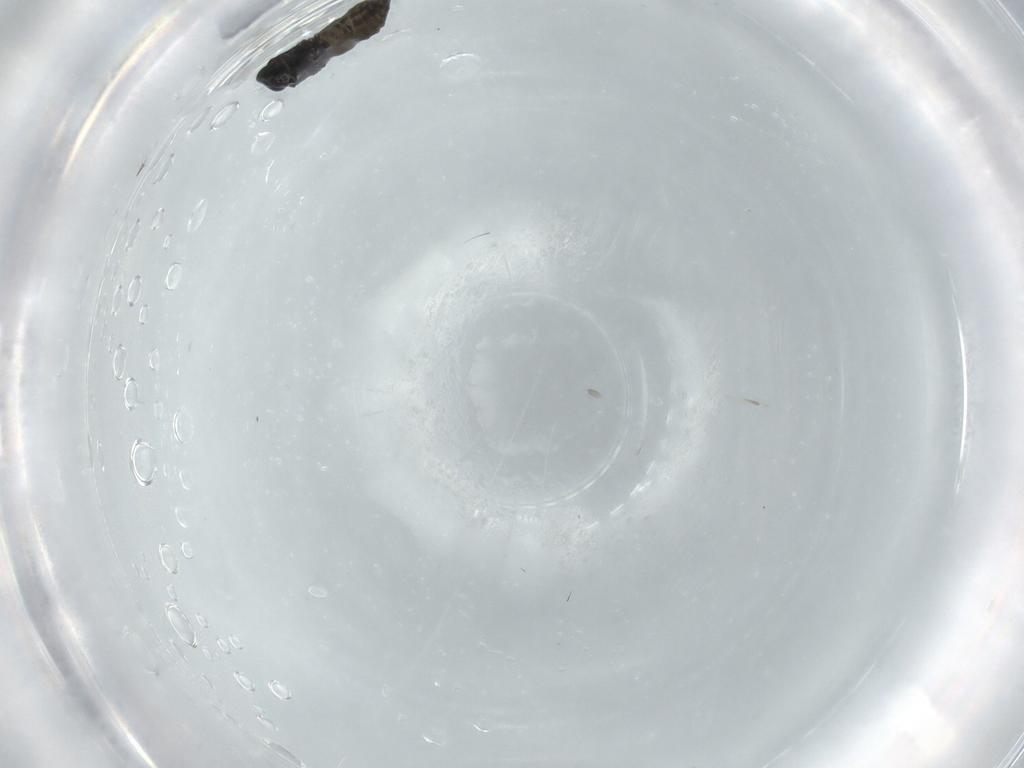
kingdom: Animalia
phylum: Arthropoda
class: Insecta
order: Diptera
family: Ceratopogonidae
